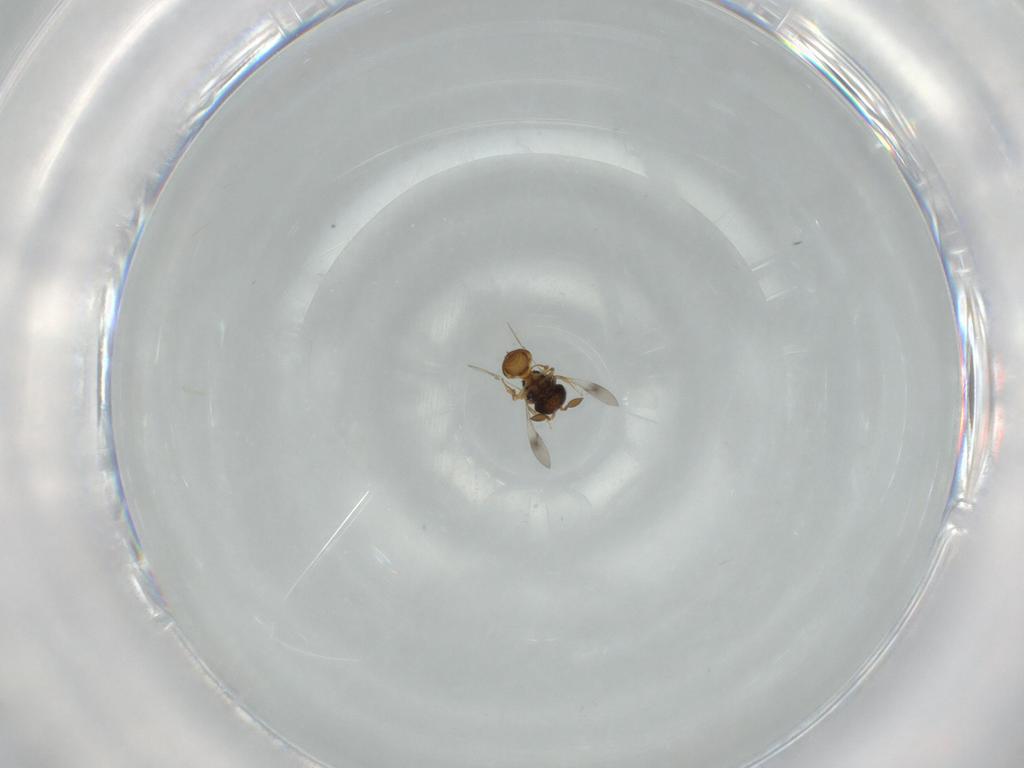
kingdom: Animalia
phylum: Arthropoda
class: Insecta
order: Hymenoptera
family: Scelionidae
